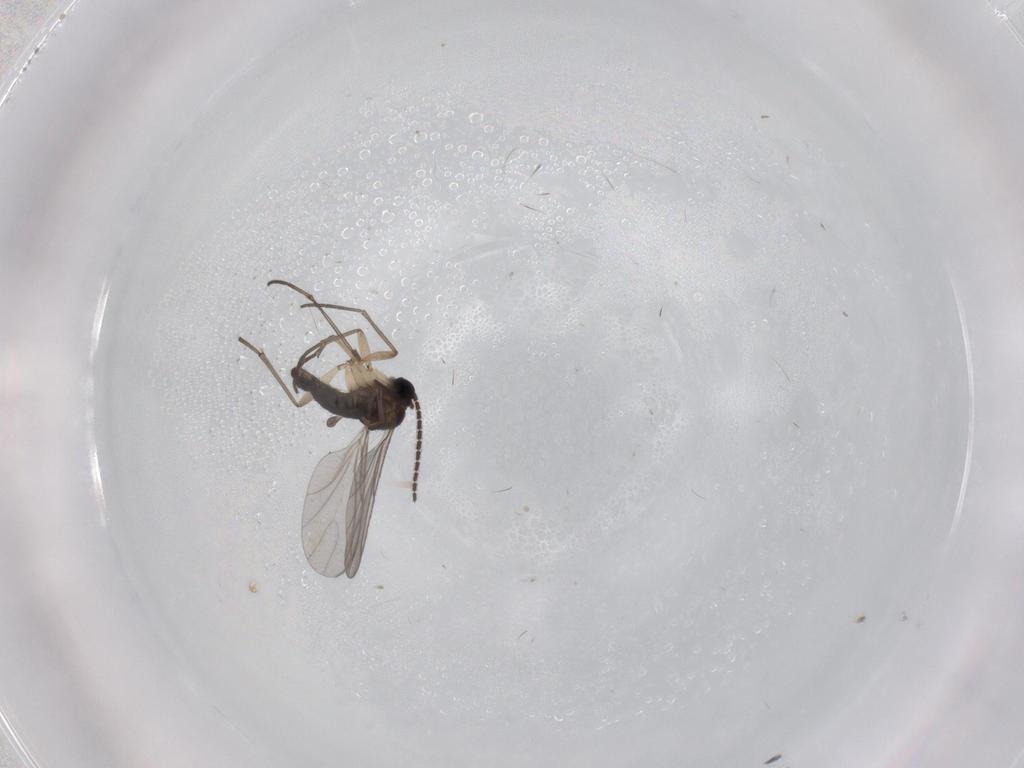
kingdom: Animalia
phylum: Arthropoda
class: Insecta
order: Diptera
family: Sciaridae
